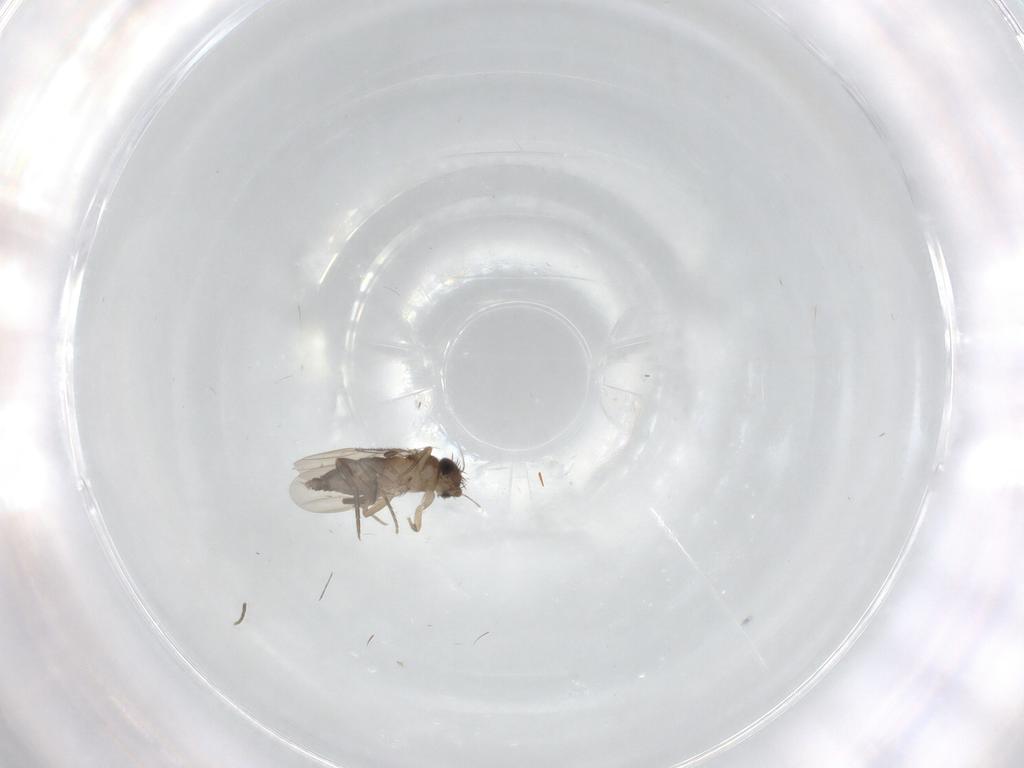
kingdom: Animalia
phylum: Arthropoda
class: Insecta
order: Diptera
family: Phoridae
